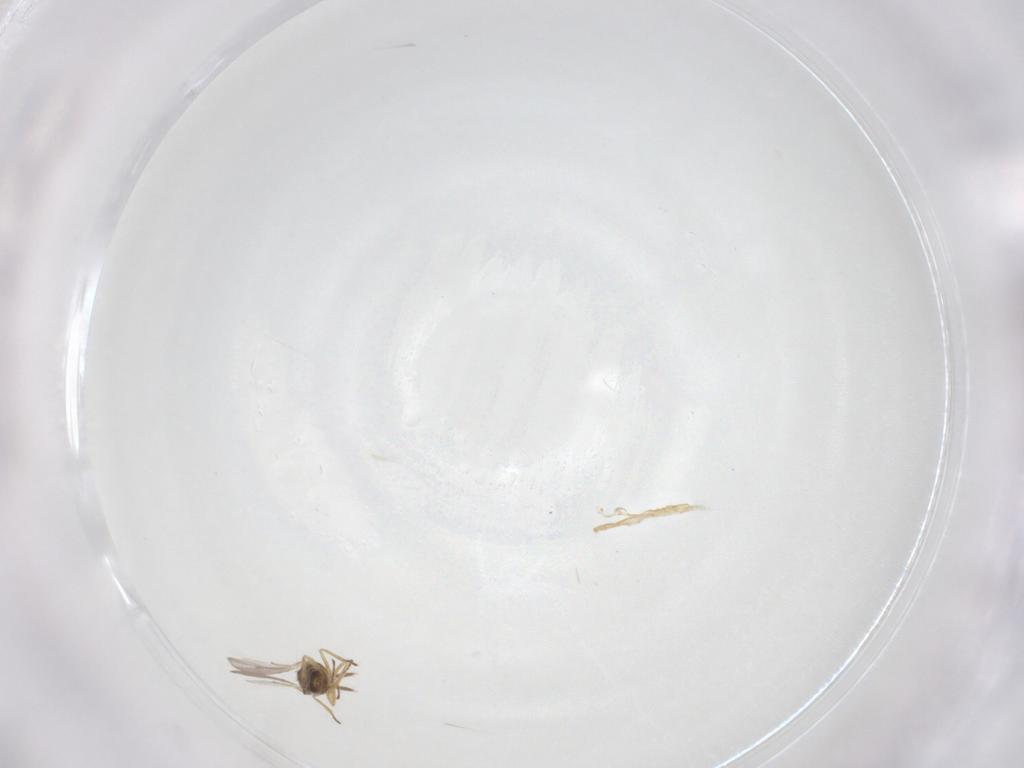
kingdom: Animalia
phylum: Arthropoda
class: Insecta
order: Hymenoptera
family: Eulophidae
